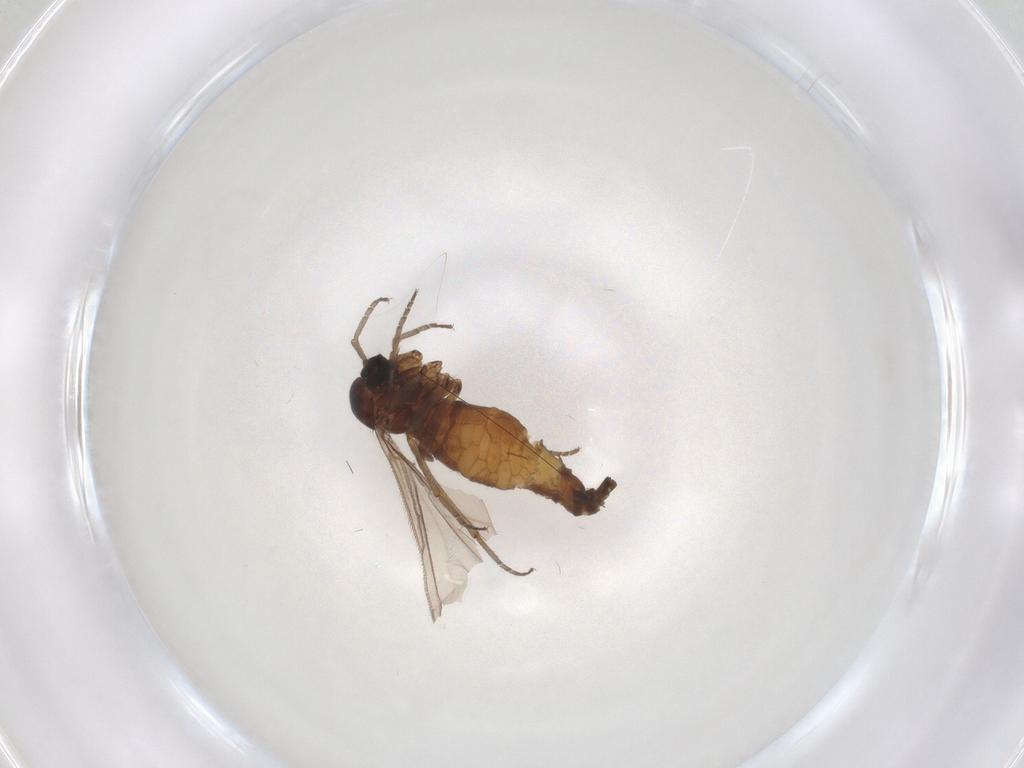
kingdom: Animalia
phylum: Arthropoda
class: Insecta
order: Diptera
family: Sciaridae
